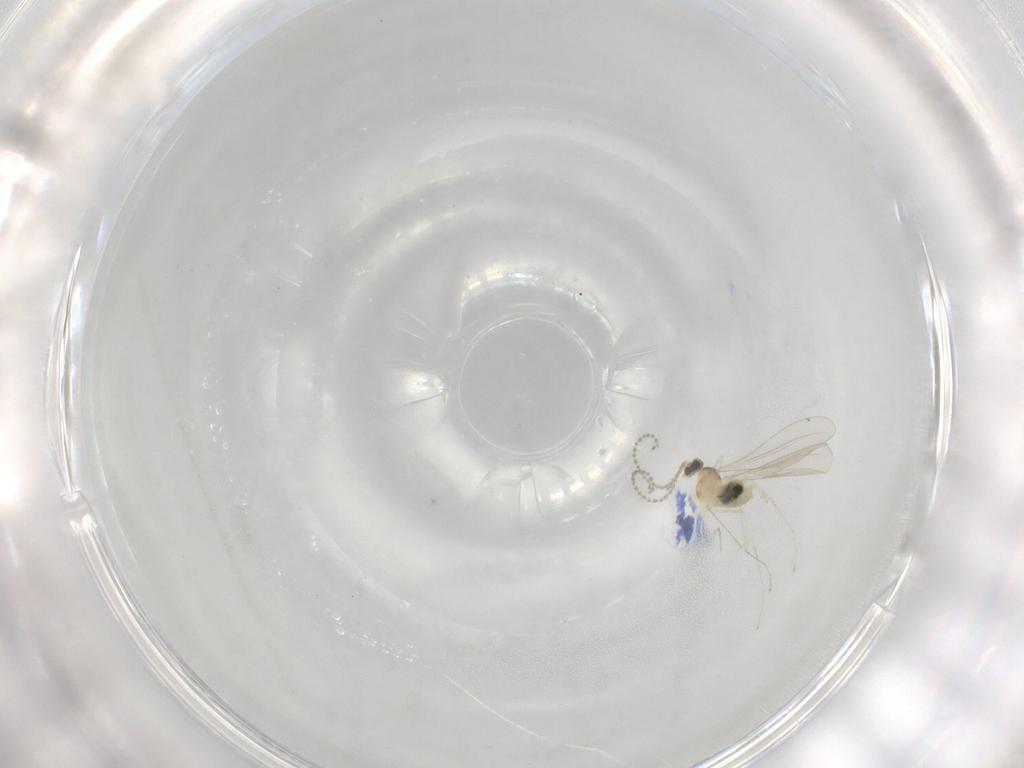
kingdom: Animalia
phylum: Arthropoda
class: Insecta
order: Diptera
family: Cecidomyiidae
